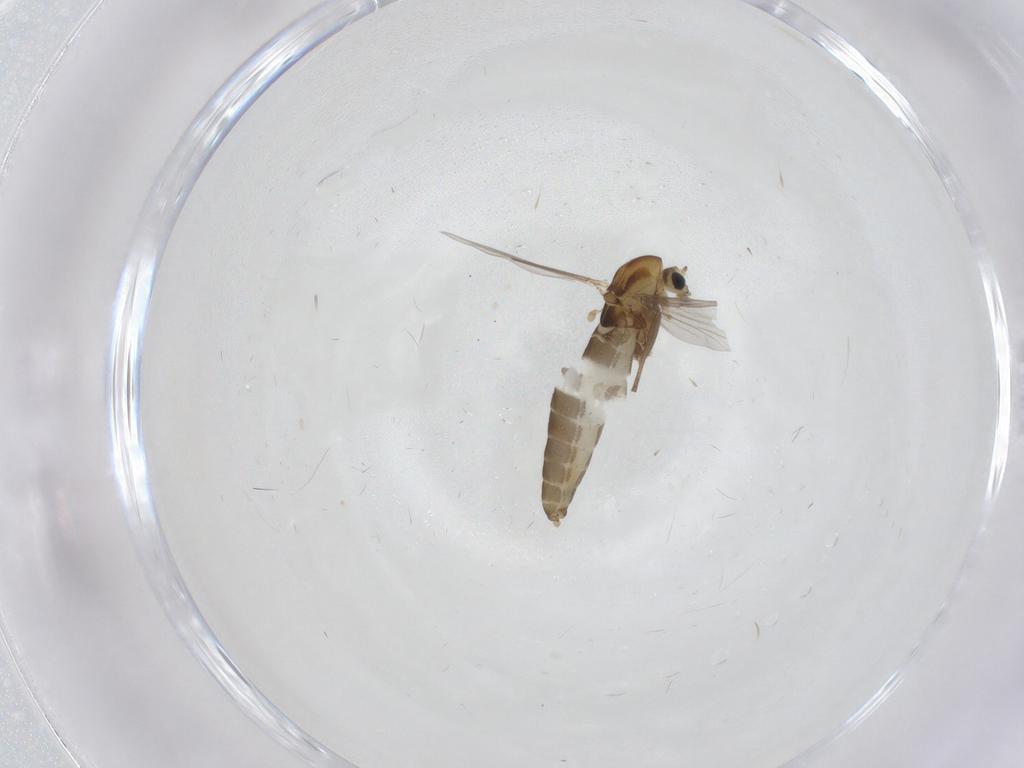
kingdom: Animalia
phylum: Arthropoda
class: Insecta
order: Diptera
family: Chironomidae
